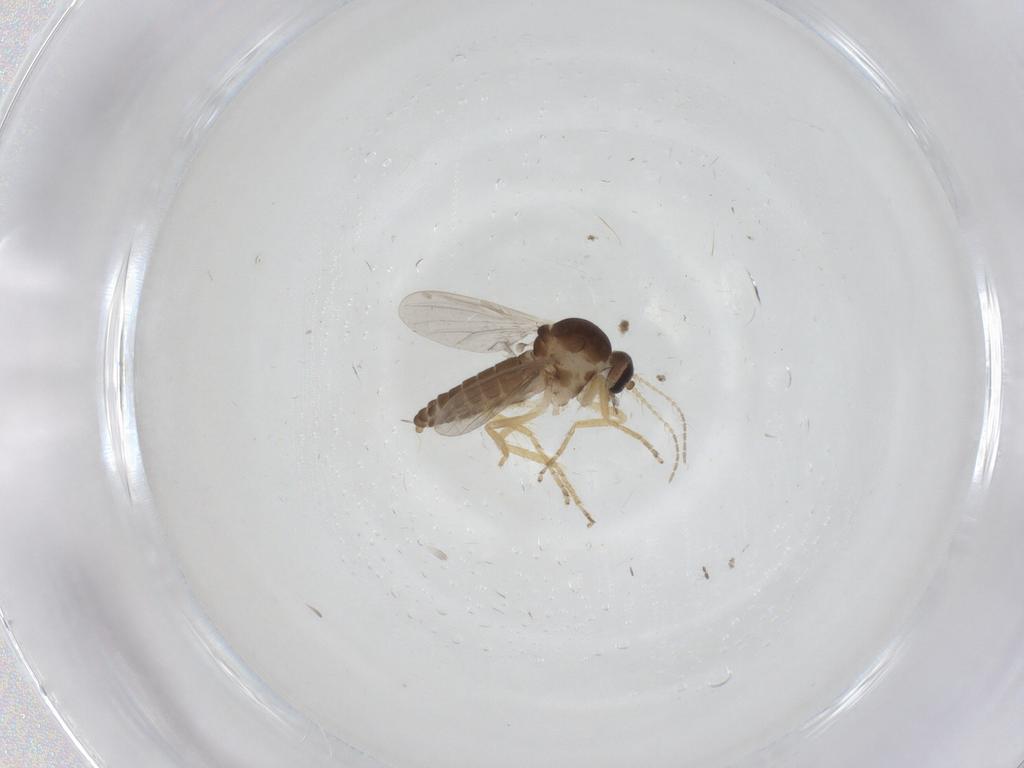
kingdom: Animalia
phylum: Arthropoda
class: Insecta
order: Diptera
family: Ceratopogonidae
